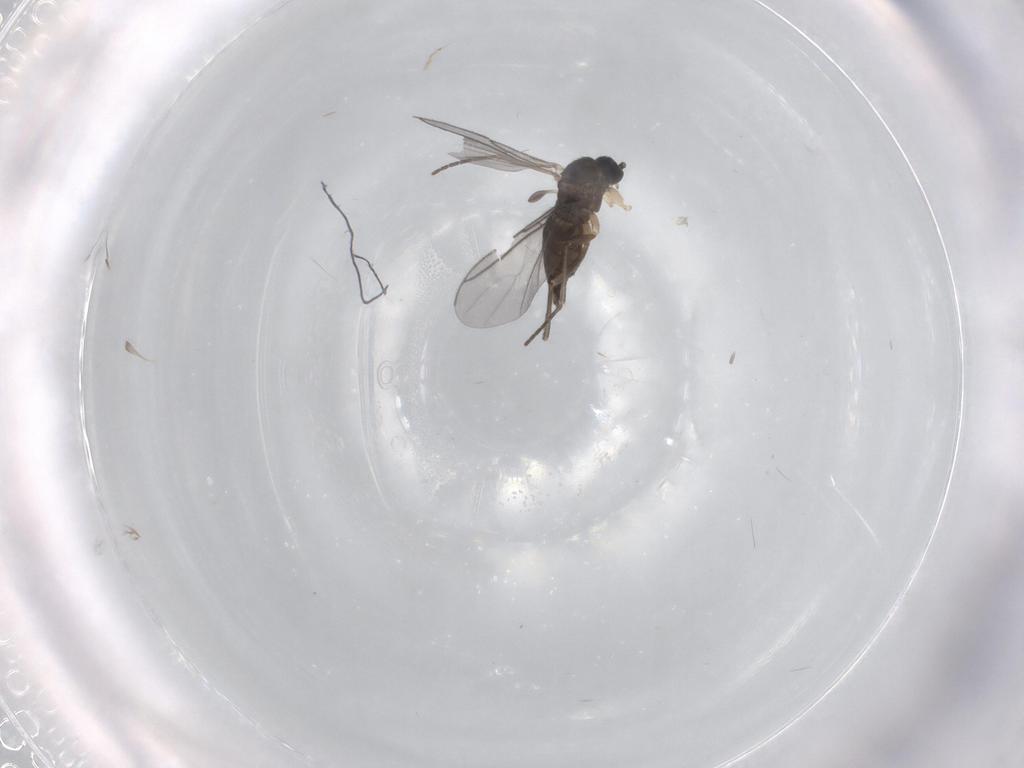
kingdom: Animalia
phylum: Arthropoda
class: Insecta
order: Diptera
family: Sciaridae
